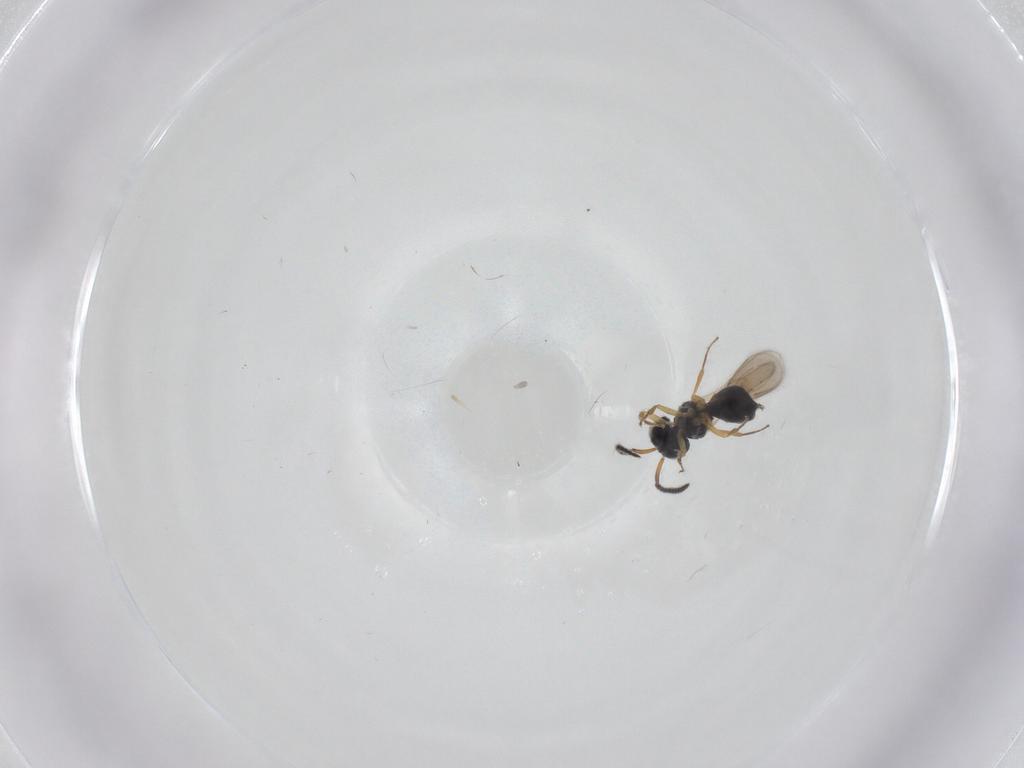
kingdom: Animalia
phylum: Arthropoda
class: Insecta
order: Hymenoptera
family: Scelionidae
